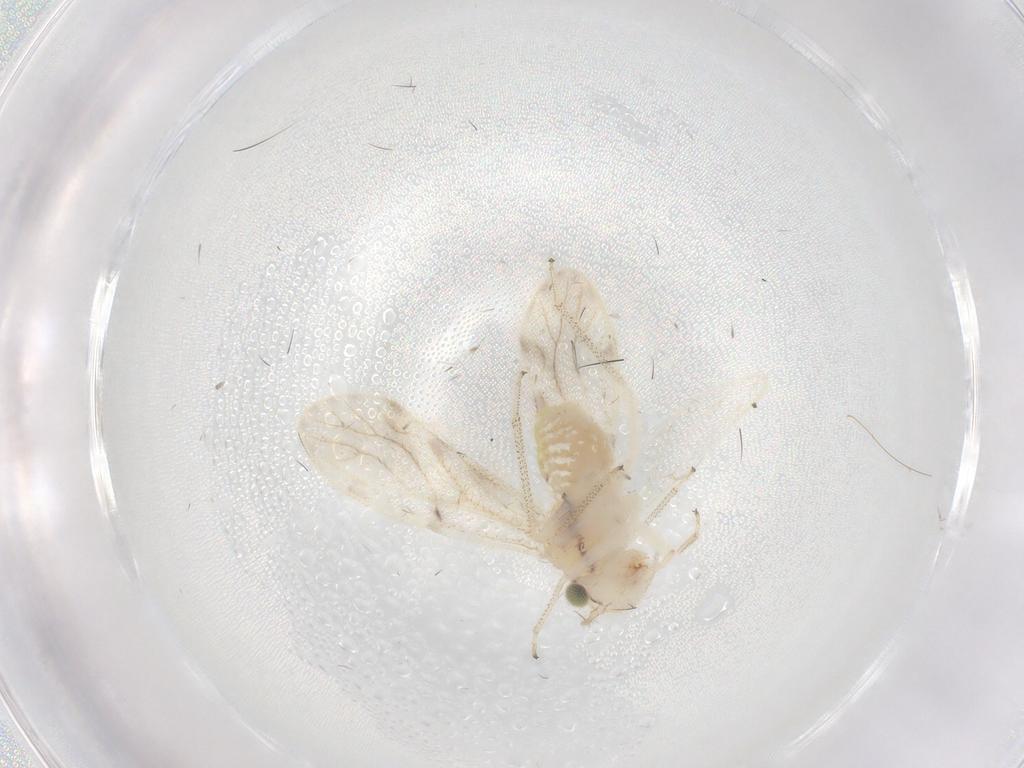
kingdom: Animalia
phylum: Arthropoda
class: Insecta
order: Psocodea
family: Pseudocaeciliidae
